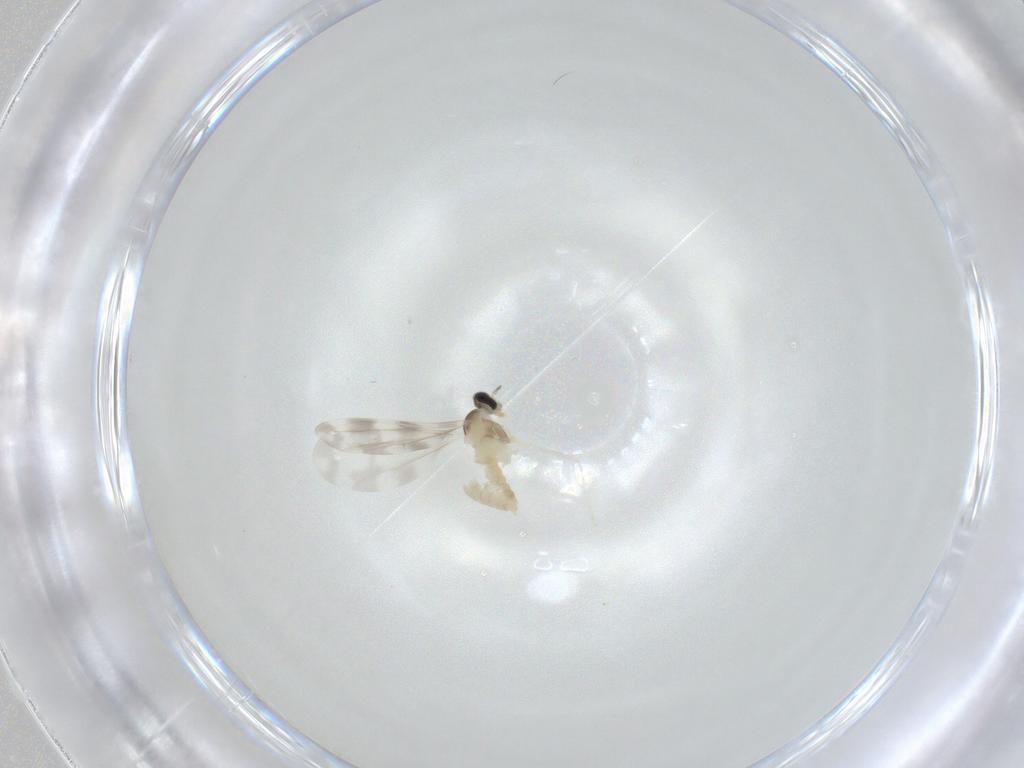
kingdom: Animalia
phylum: Arthropoda
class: Insecta
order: Diptera
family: Cecidomyiidae
